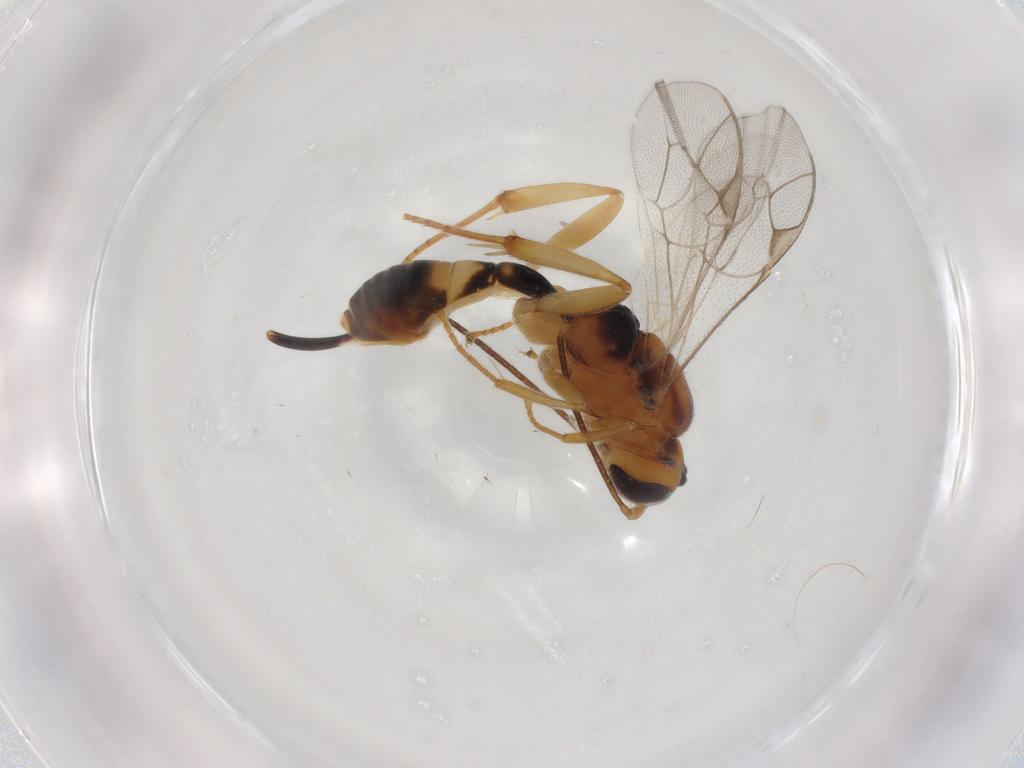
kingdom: Animalia
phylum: Arthropoda
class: Insecta
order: Hymenoptera
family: Ichneumonidae
